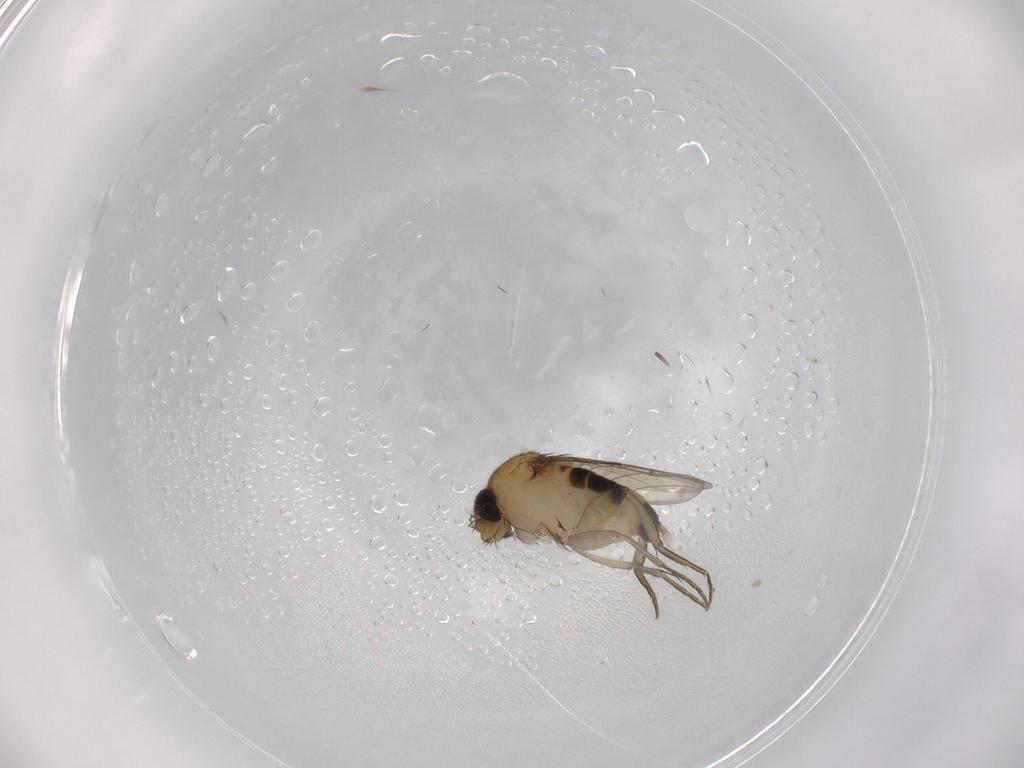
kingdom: Animalia
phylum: Arthropoda
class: Insecta
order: Diptera
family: Phoridae
